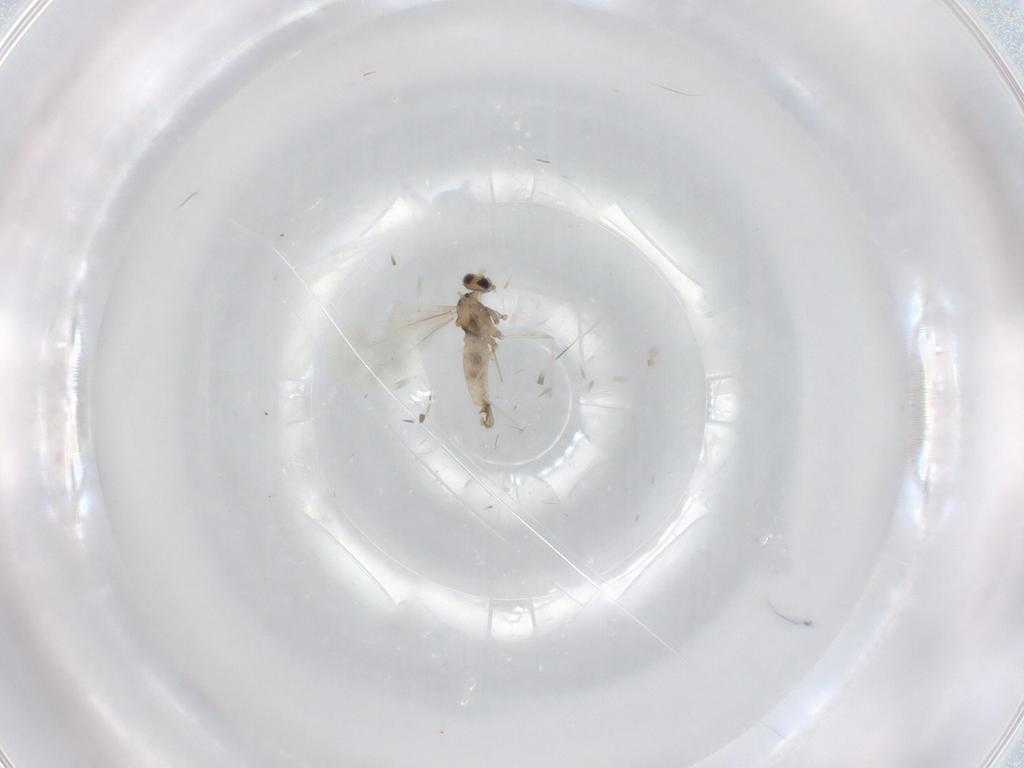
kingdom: Animalia
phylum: Arthropoda
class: Insecta
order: Diptera
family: Cecidomyiidae
